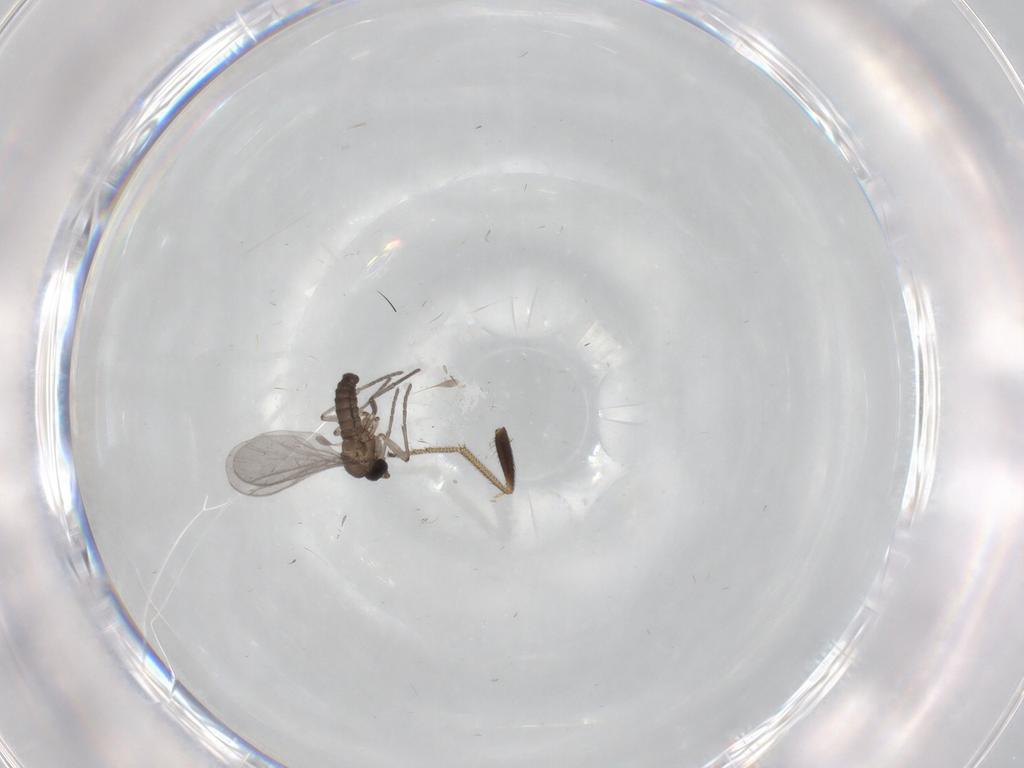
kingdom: Animalia
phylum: Arthropoda
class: Insecta
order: Diptera
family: Sciaridae
